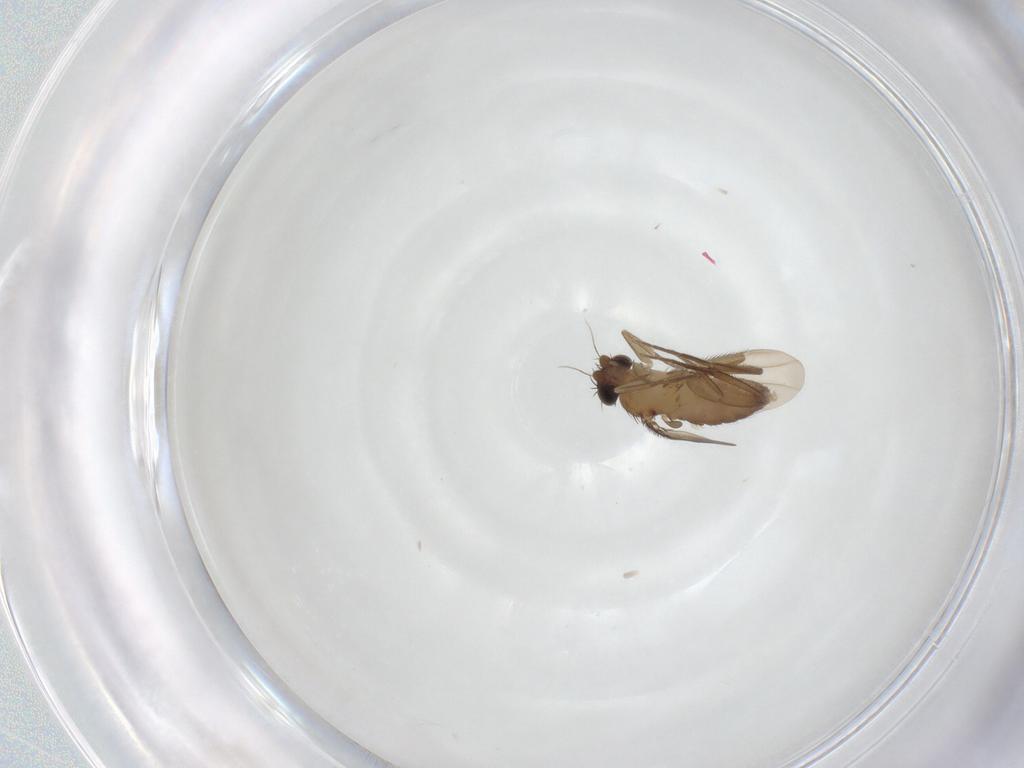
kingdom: Animalia
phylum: Arthropoda
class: Insecta
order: Diptera
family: Phoridae
